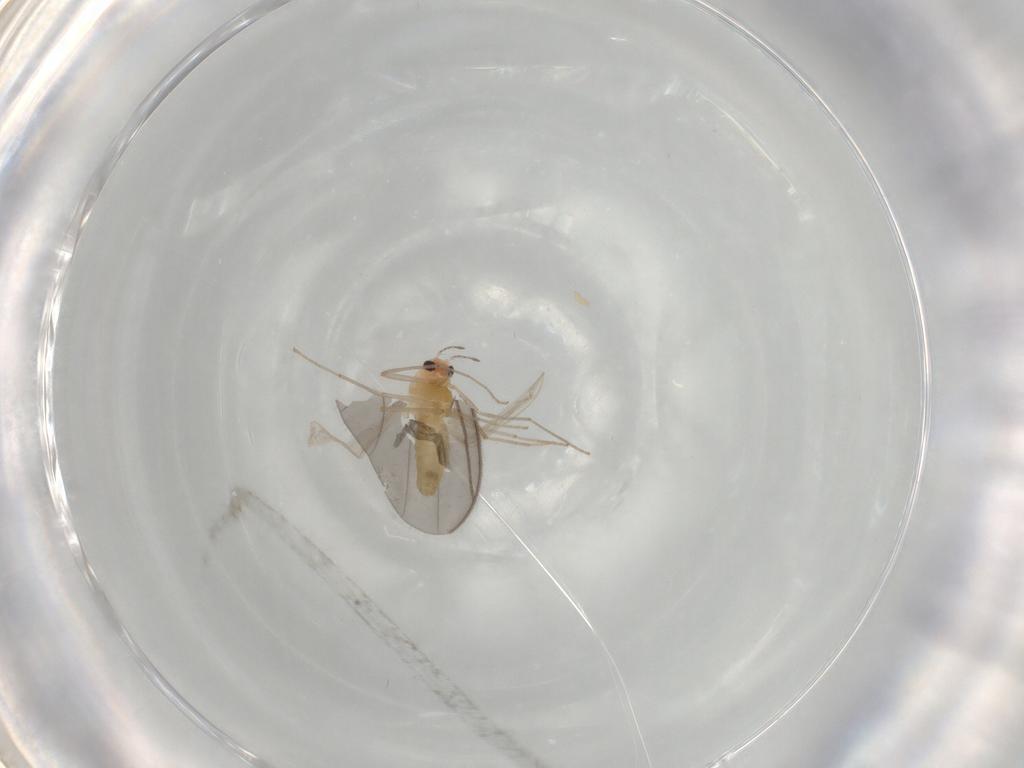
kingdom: Animalia
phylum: Arthropoda
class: Insecta
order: Diptera
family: Chironomidae
